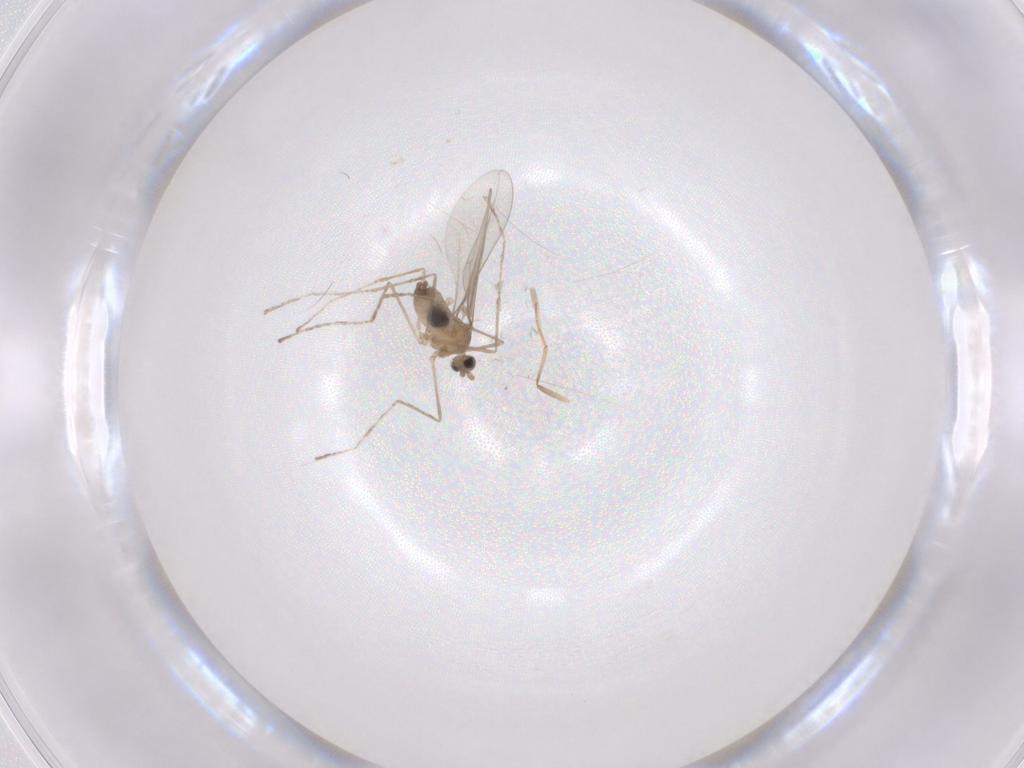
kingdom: Animalia
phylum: Arthropoda
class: Insecta
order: Diptera
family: Cecidomyiidae
